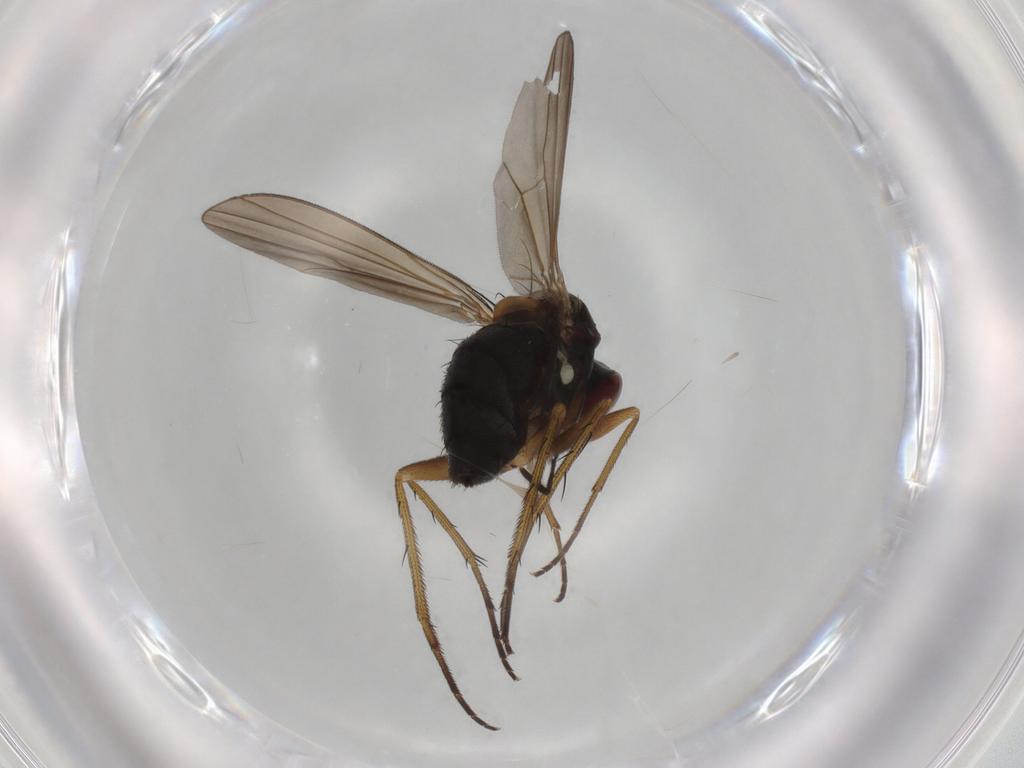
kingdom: Animalia
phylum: Arthropoda
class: Insecta
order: Diptera
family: Dolichopodidae
